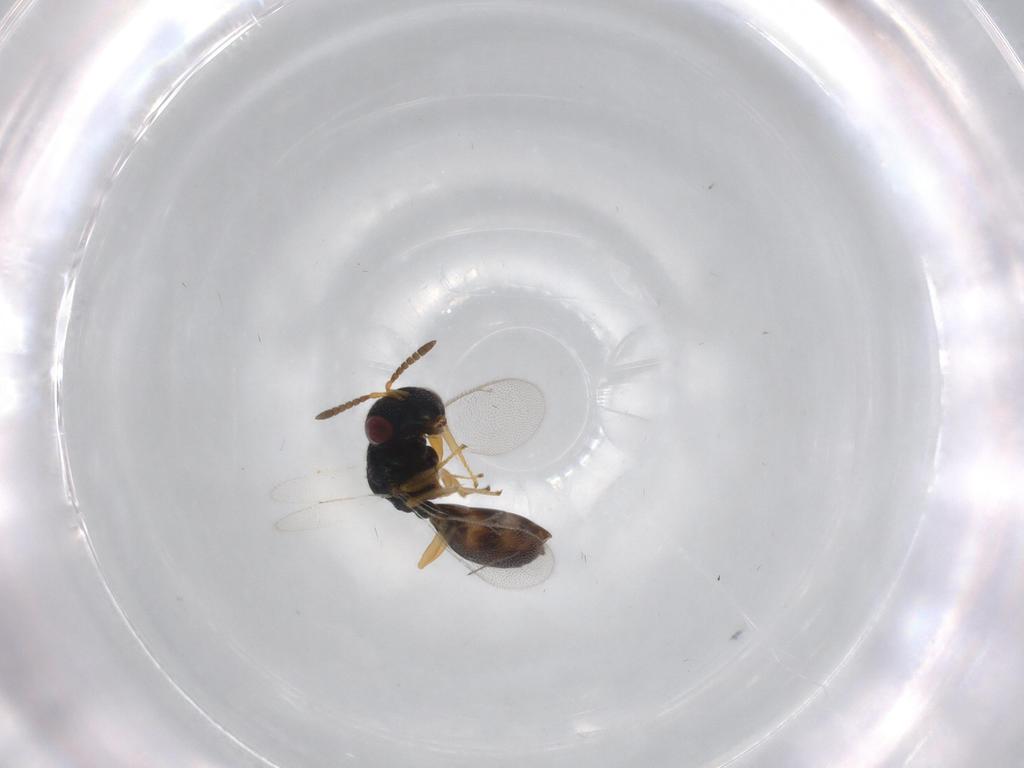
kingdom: Animalia
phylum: Arthropoda
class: Insecta
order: Hymenoptera
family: Pteromalidae
